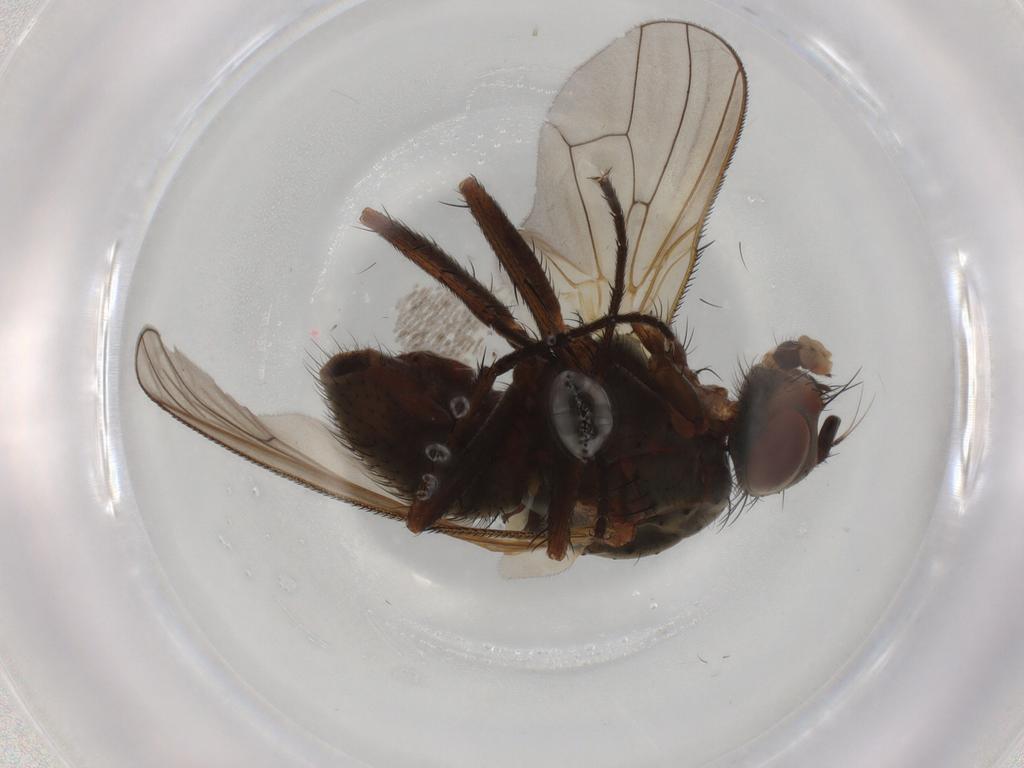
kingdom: Animalia
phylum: Arthropoda
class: Insecta
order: Diptera
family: Anthomyiidae
